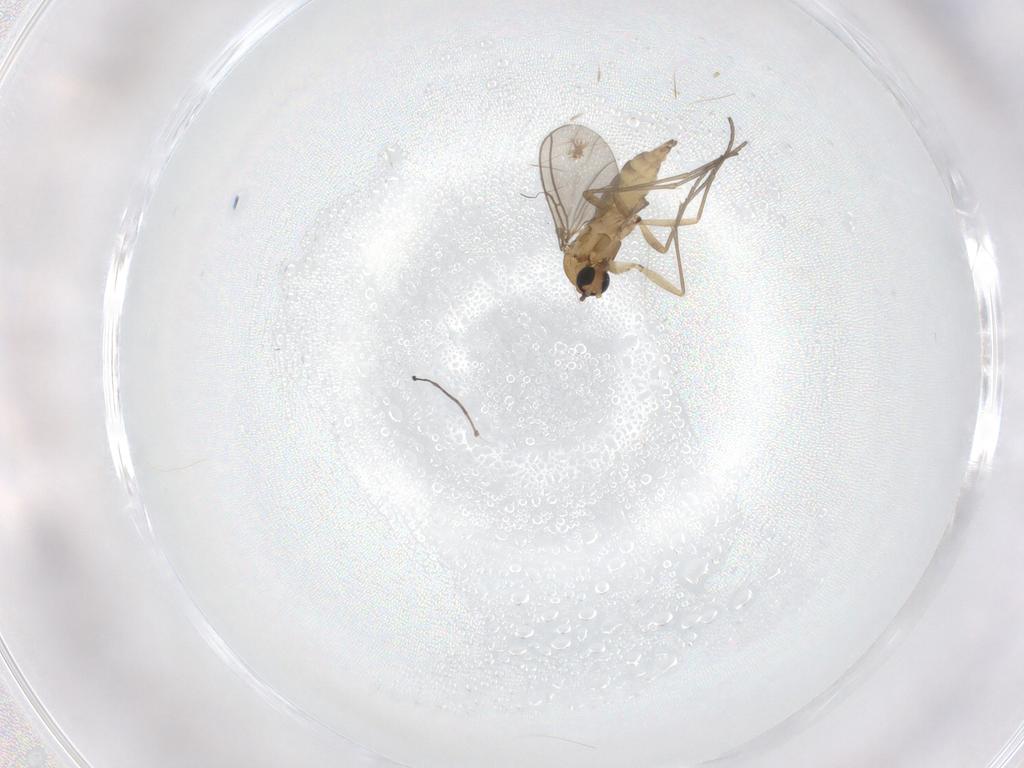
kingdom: Animalia
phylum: Arthropoda
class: Insecta
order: Diptera
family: Sciaridae
